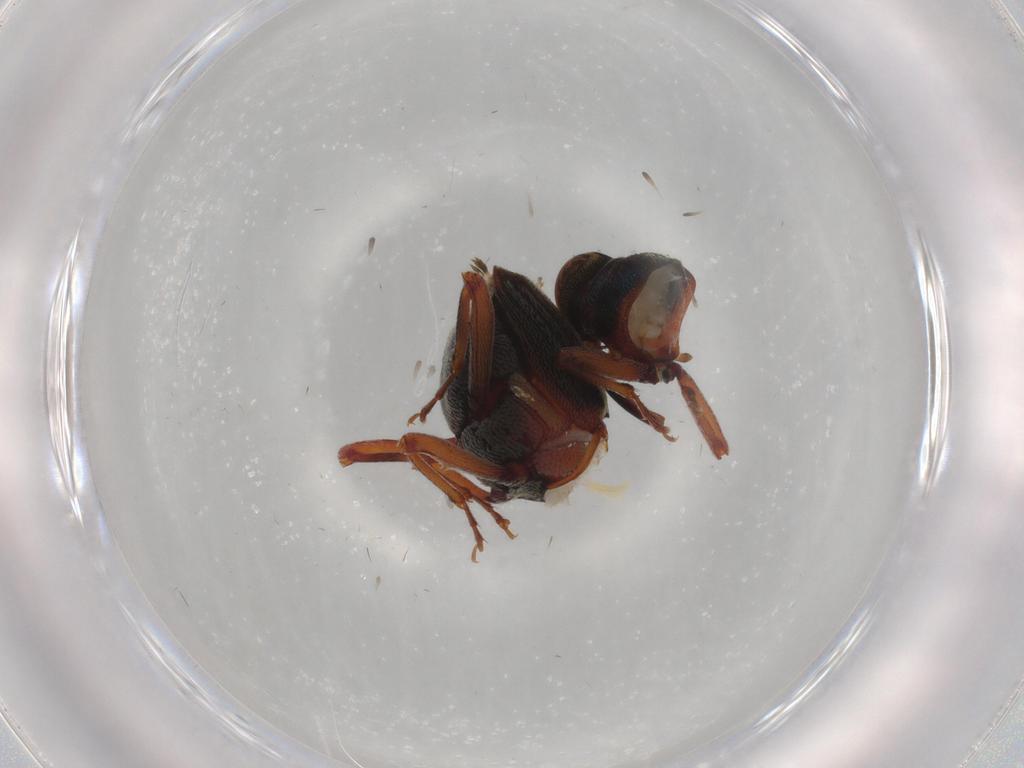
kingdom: Animalia
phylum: Arthropoda
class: Insecta
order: Coleoptera
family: Curculionidae
